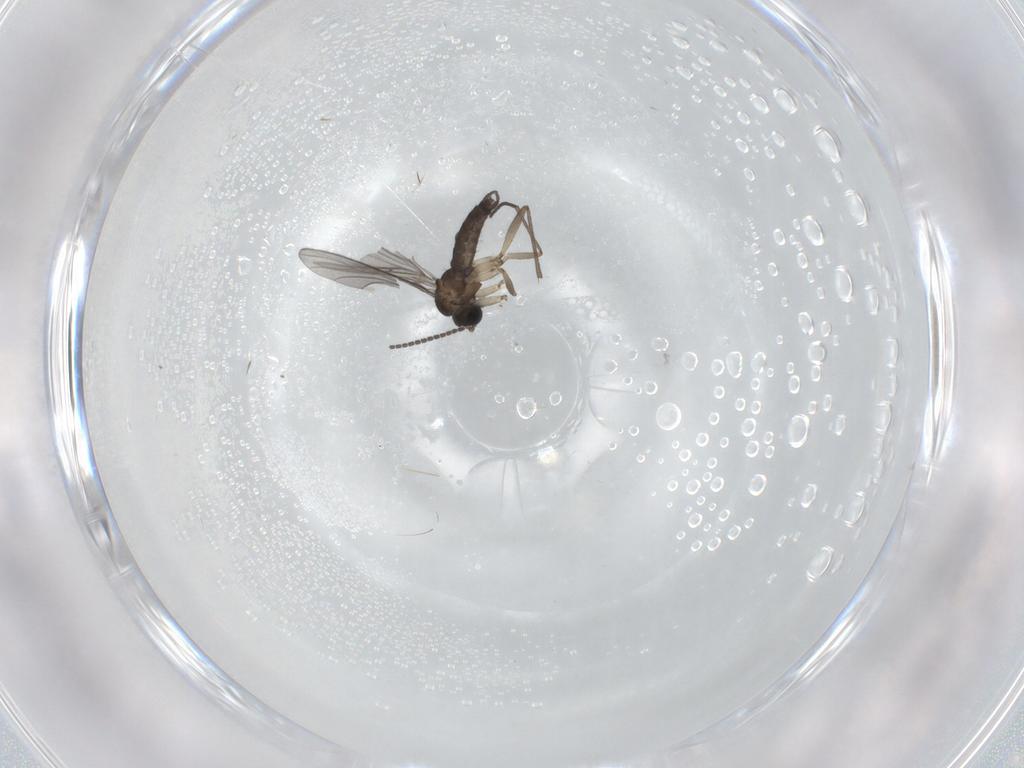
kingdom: Animalia
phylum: Arthropoda
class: Insecta
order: Diptera
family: Sciaridae
